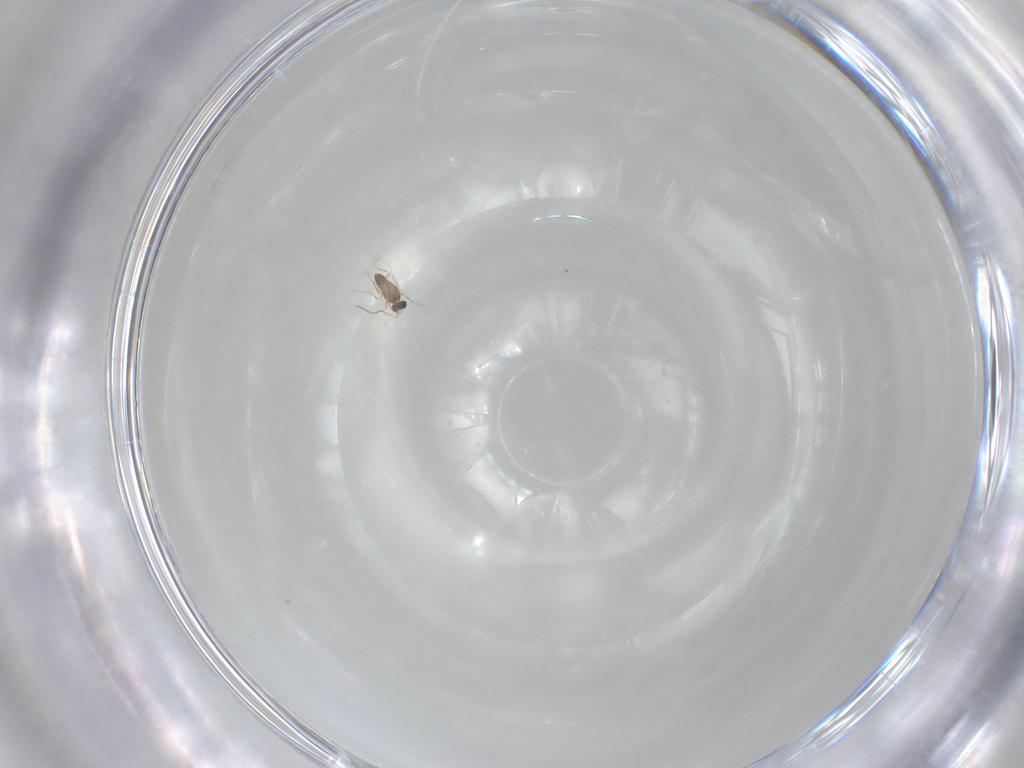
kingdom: Animalia
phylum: Arthropoda
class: Insecta
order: Hymenoptera
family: Mymaridae
